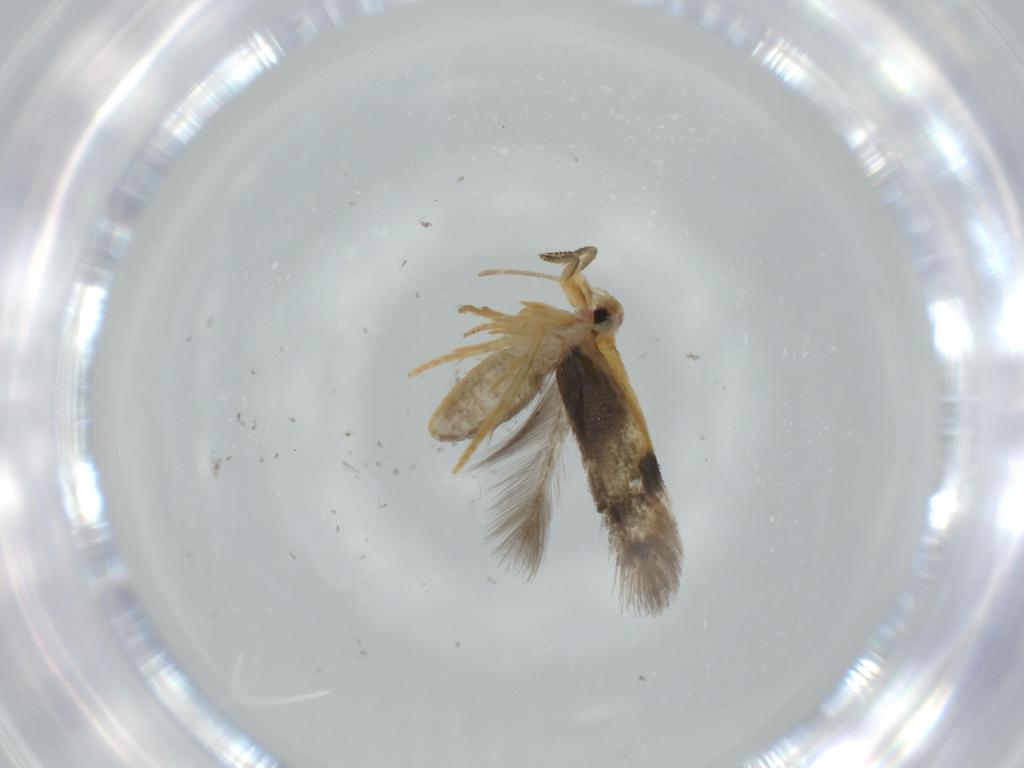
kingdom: Animalia
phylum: Arthropoda
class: Insecta
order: Lepidoptera
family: Nepticulidae
